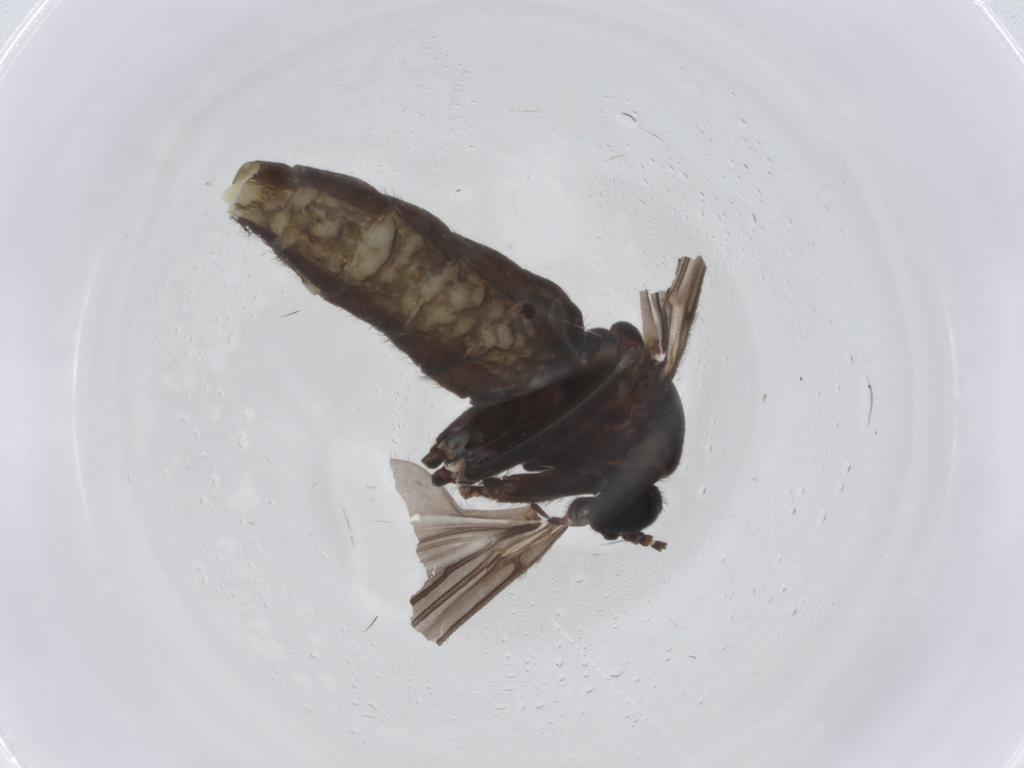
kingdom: Animalia
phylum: Arthropoda
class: Insecta
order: Diptera
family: Sciaridae
